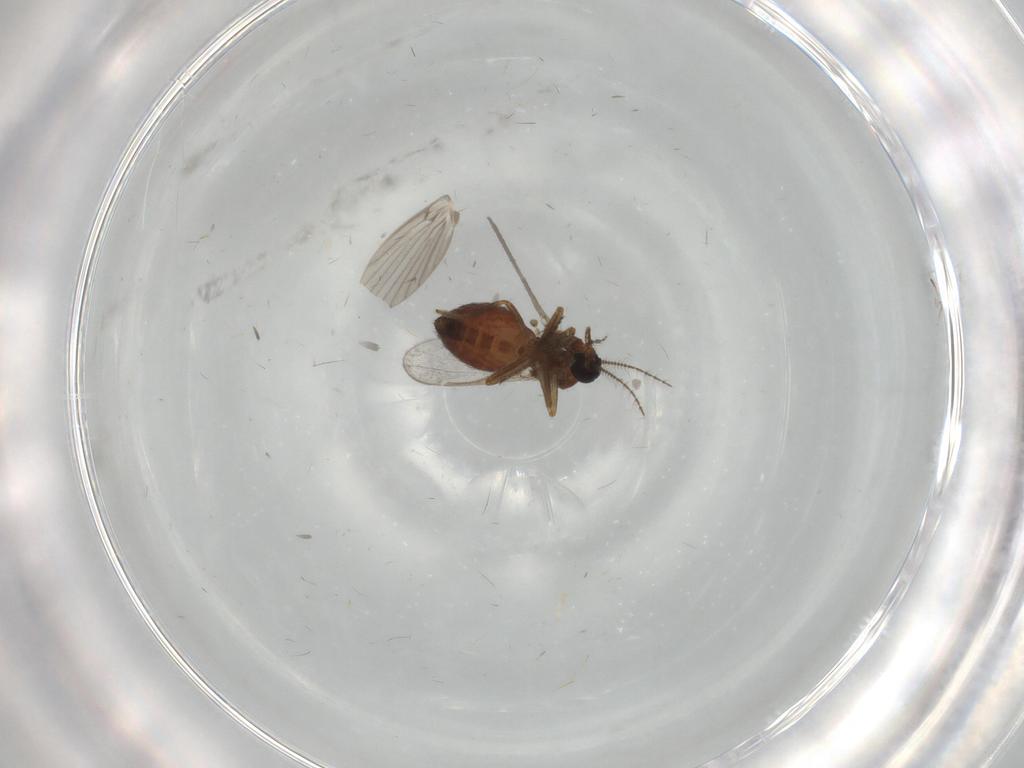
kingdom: Animalia
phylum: Arthropoda
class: Insecta
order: Diptera
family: Ceratopogonidae
